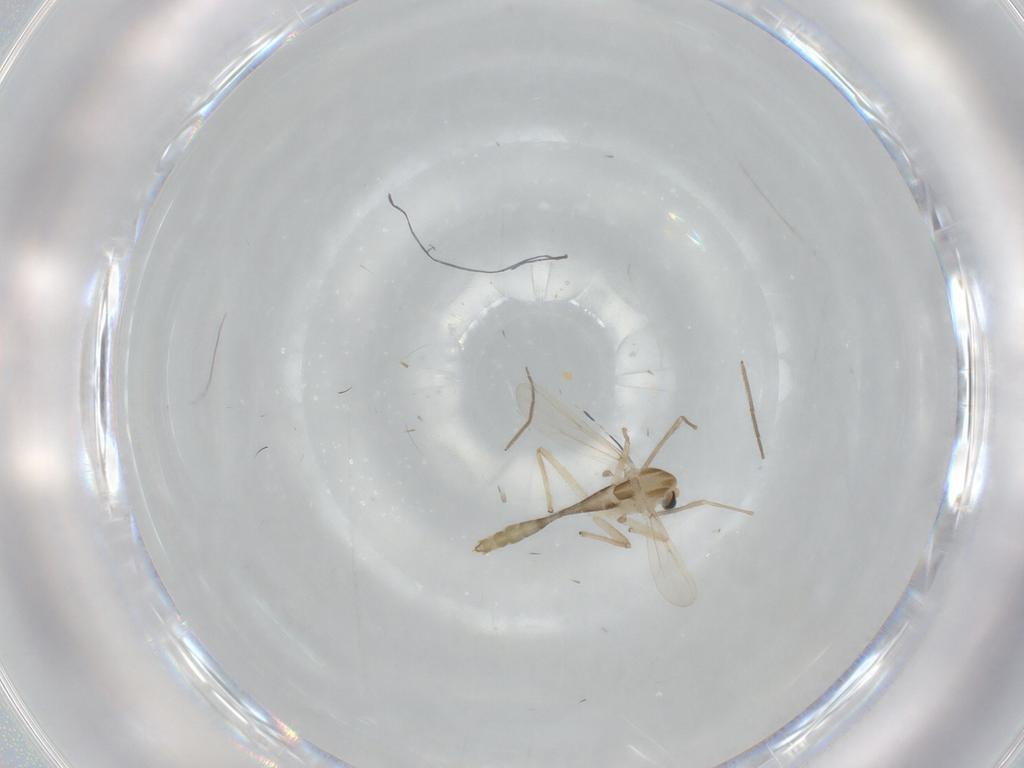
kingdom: Animalia
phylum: Arthropoda
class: Insecta
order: Diptera
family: Chironomidae
